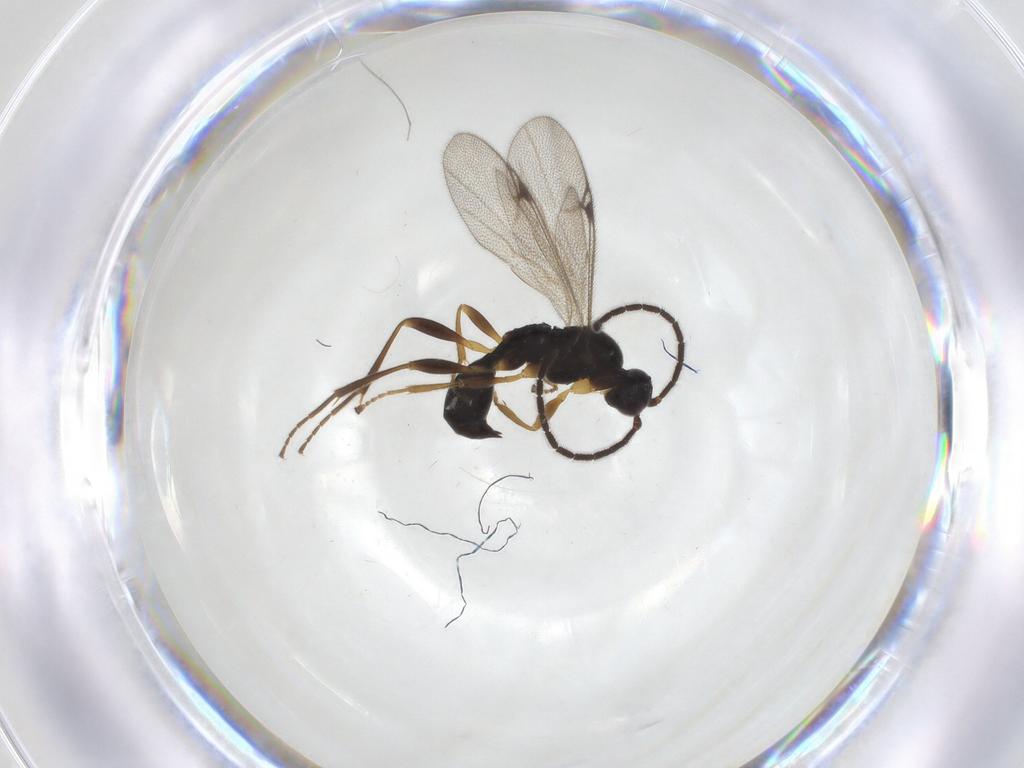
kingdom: Animalia
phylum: Arthropoda
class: Insecta
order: Hymenoptera
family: Proctotrupidae
